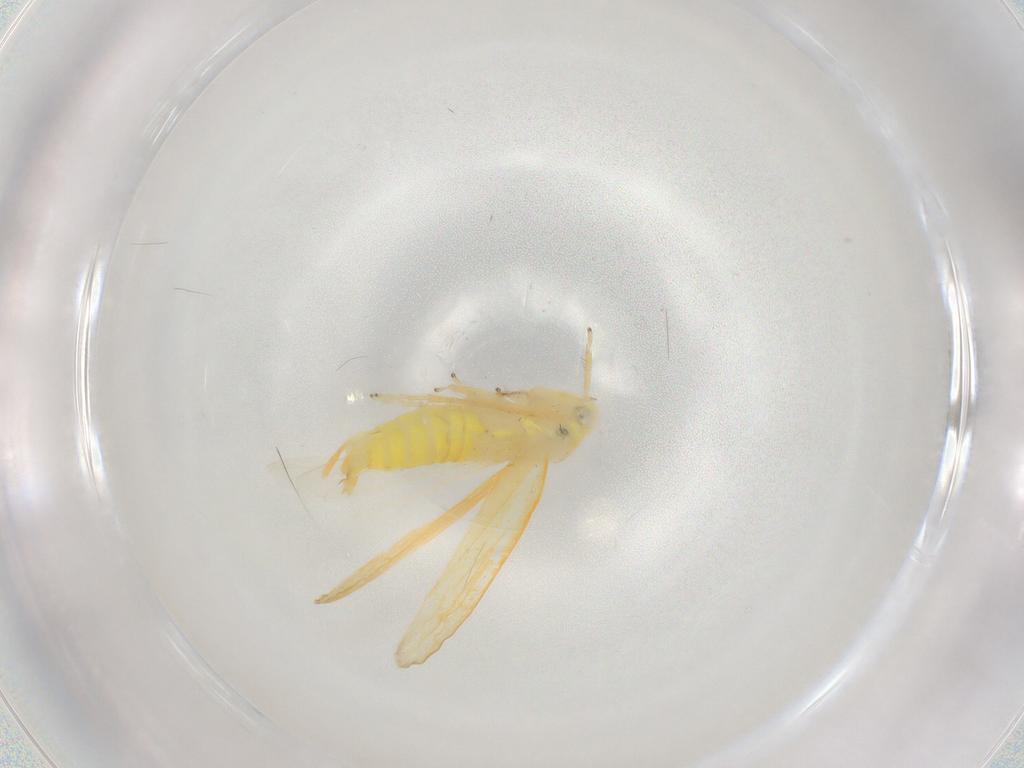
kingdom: Animalia
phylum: Arthropoda
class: Insecta
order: Hemiptera
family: Cicadellidae
